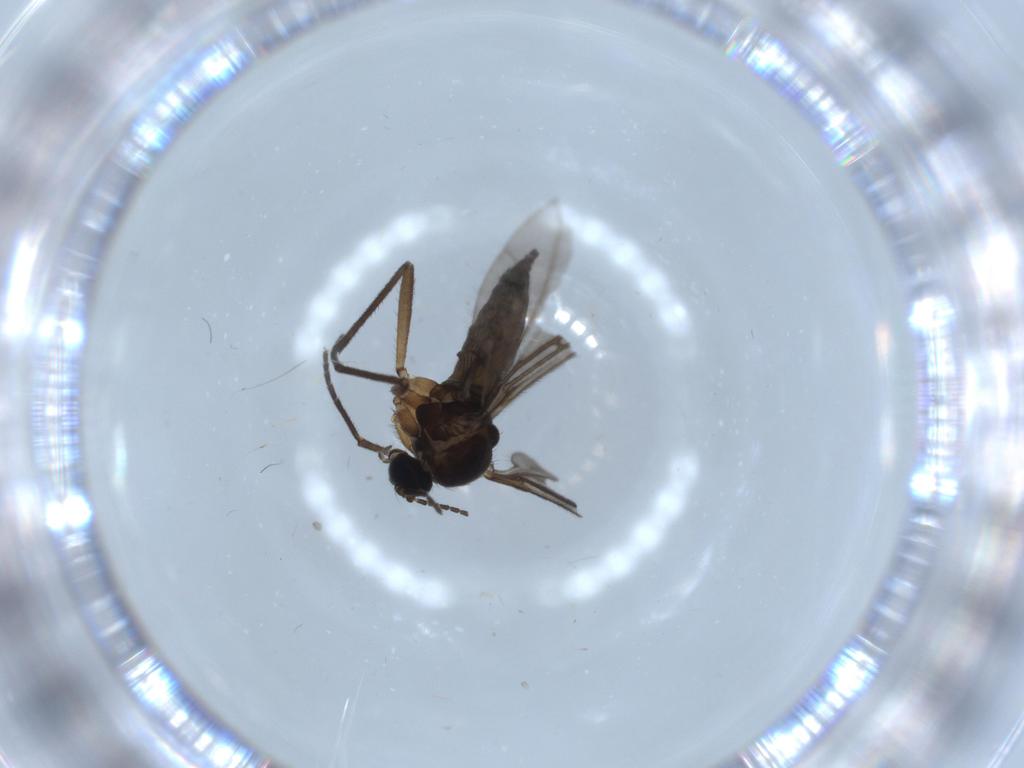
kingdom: Animalia
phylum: Arthropoda
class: Insecta
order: Diptera
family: Sciaridae
